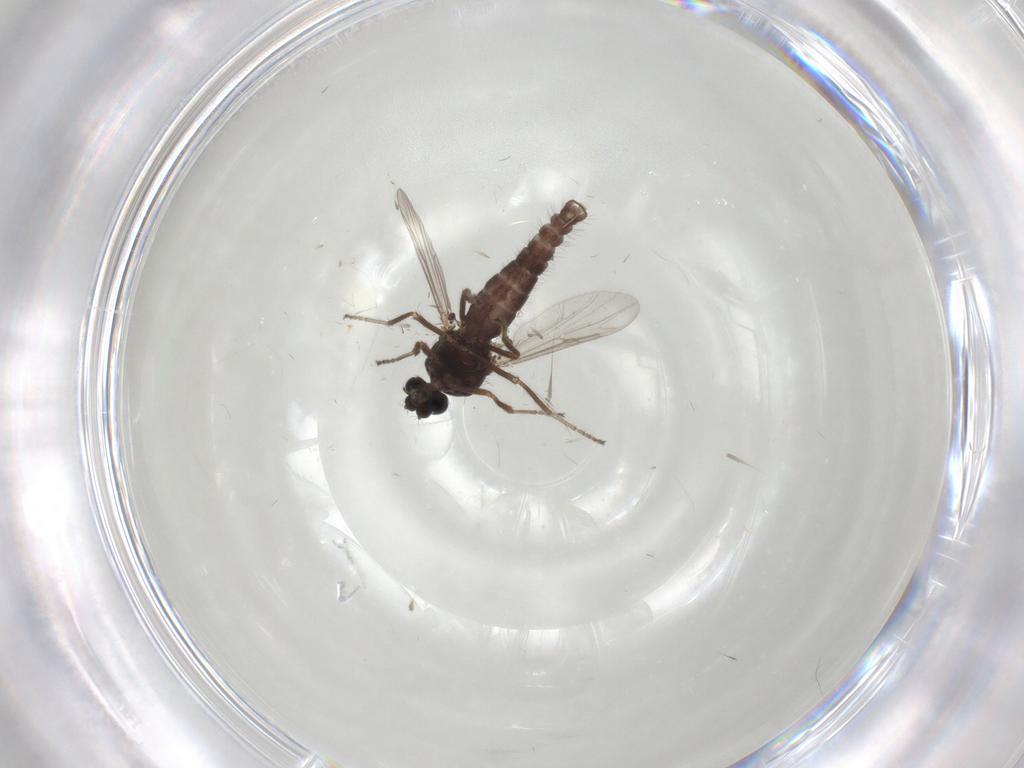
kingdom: Animalia
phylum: Arthropoda
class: Insecta
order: Diptera
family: Ceratopogonidae
